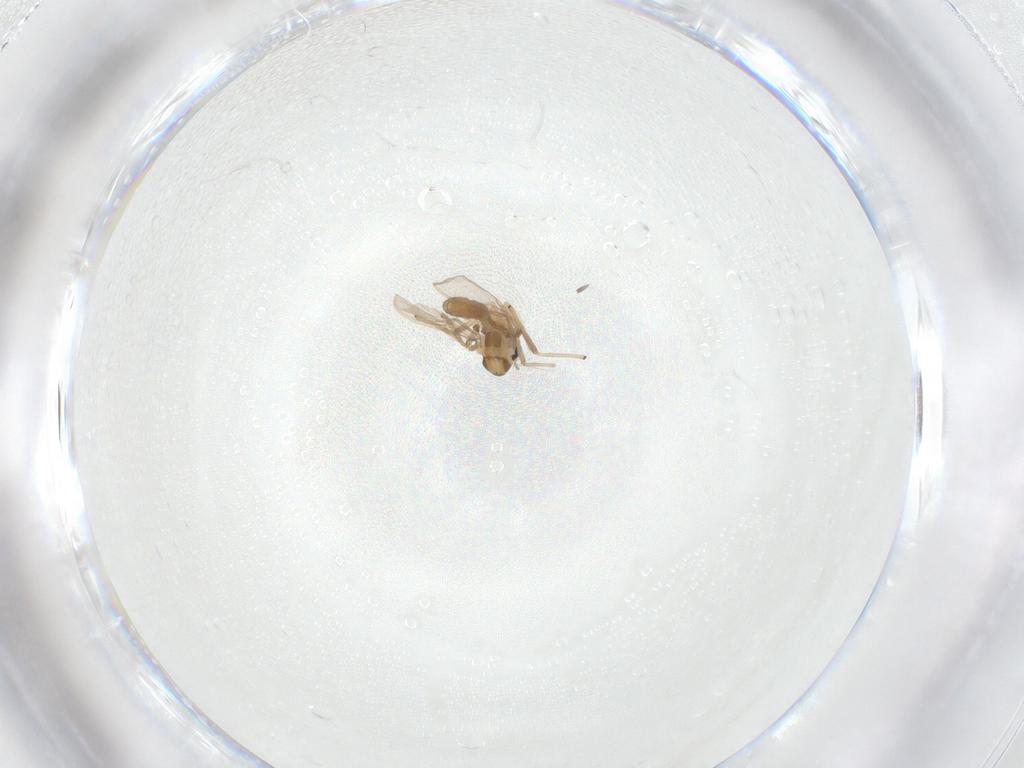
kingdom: Animalia
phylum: Arthropoda
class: Insecta
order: Diptera
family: Chironomidae
